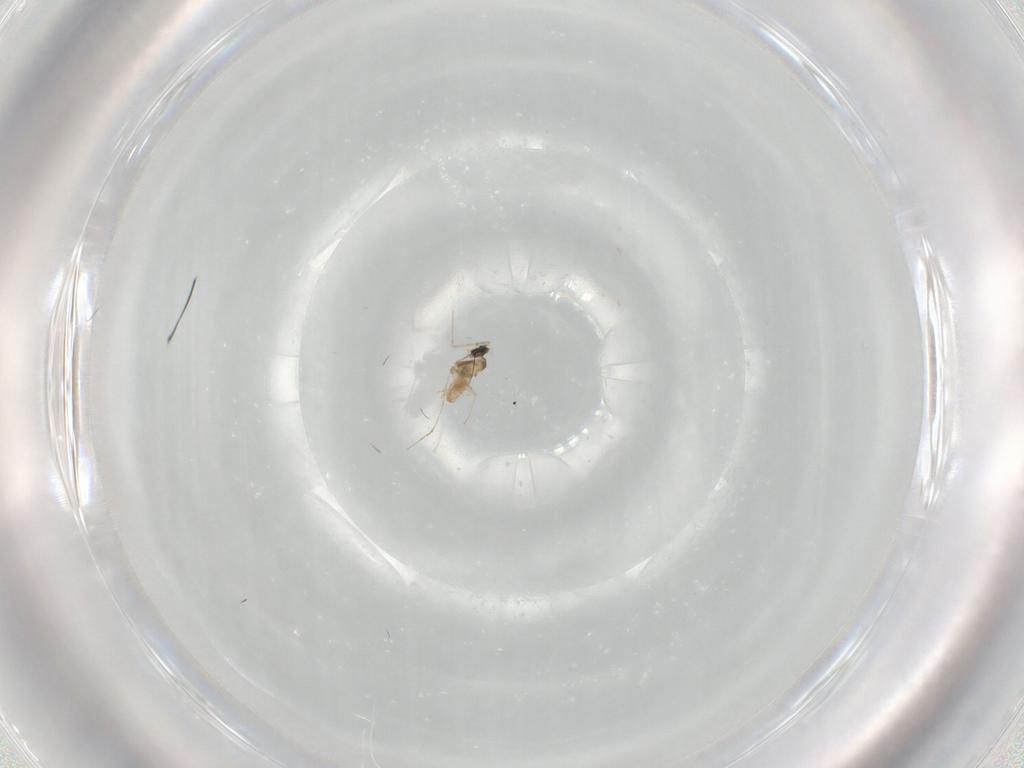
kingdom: Animalia
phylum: Arthropoda
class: Insecta
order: Diptera
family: Cecidomyiidae
